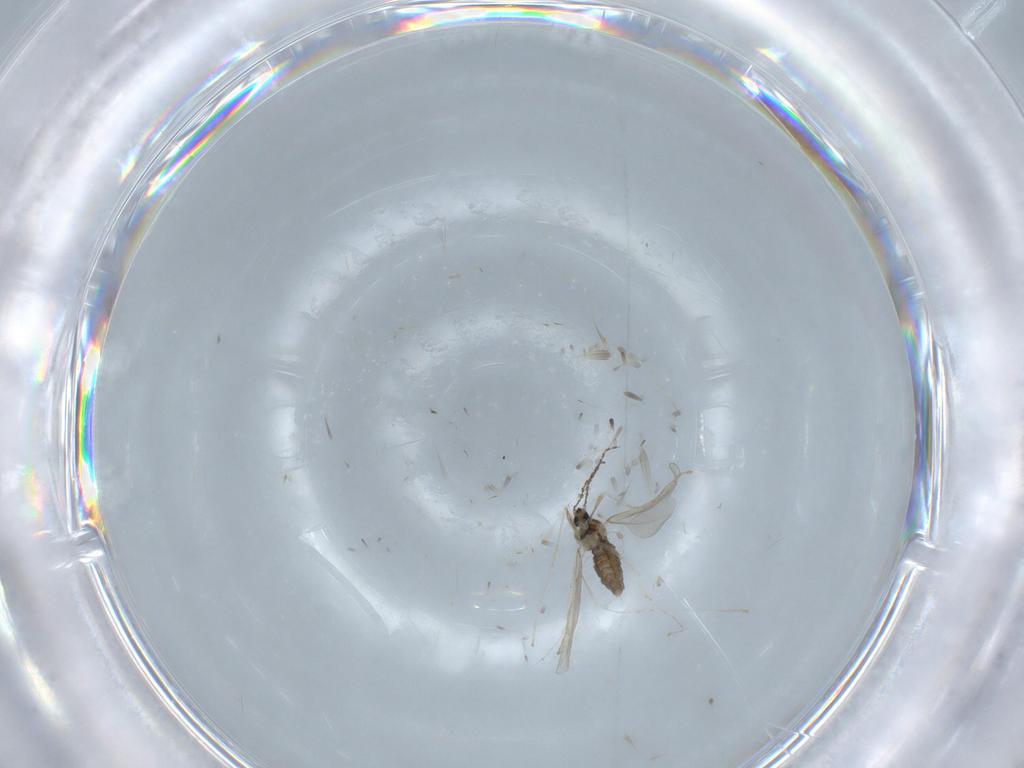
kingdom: Animalia
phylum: Arthropoda
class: Insecta
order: Diptera
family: Cecidomyiidae
